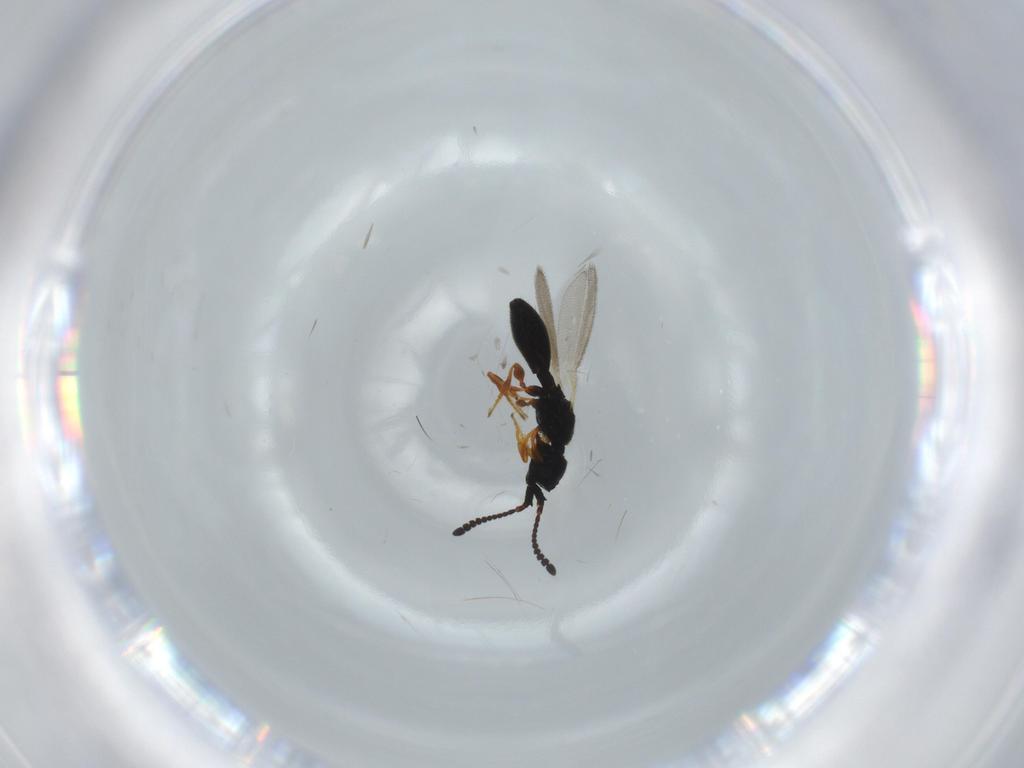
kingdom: Animalia
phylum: Arthropoda
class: Insecta
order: Hymenoptera
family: Diapriidae
